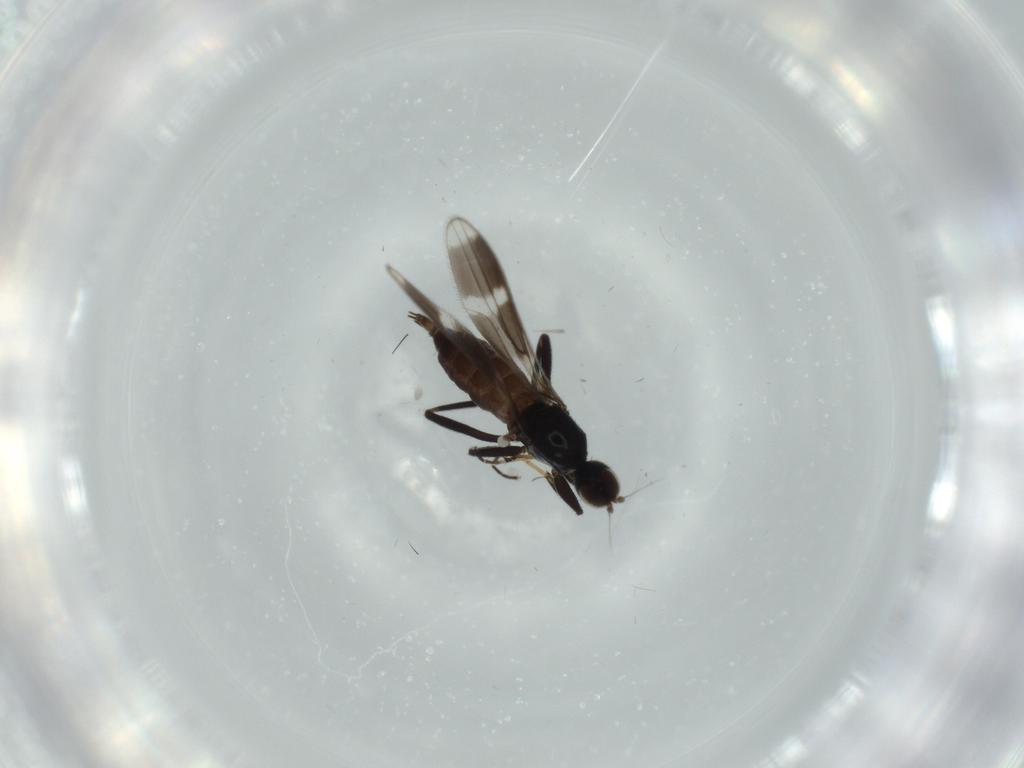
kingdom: Animalia
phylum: Arthropoda
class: Insecta
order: Diptera
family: Hybotidae
